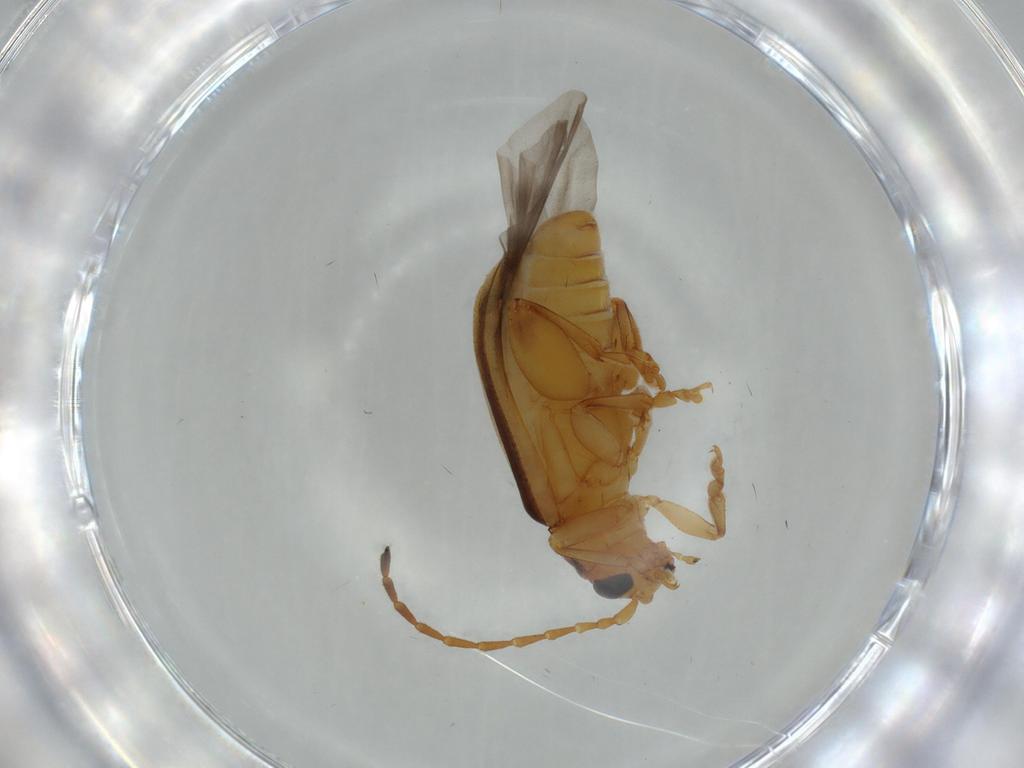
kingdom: Animalia
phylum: Arthropoda
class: Insecta
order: Coleoptera
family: Chrysomelidae
